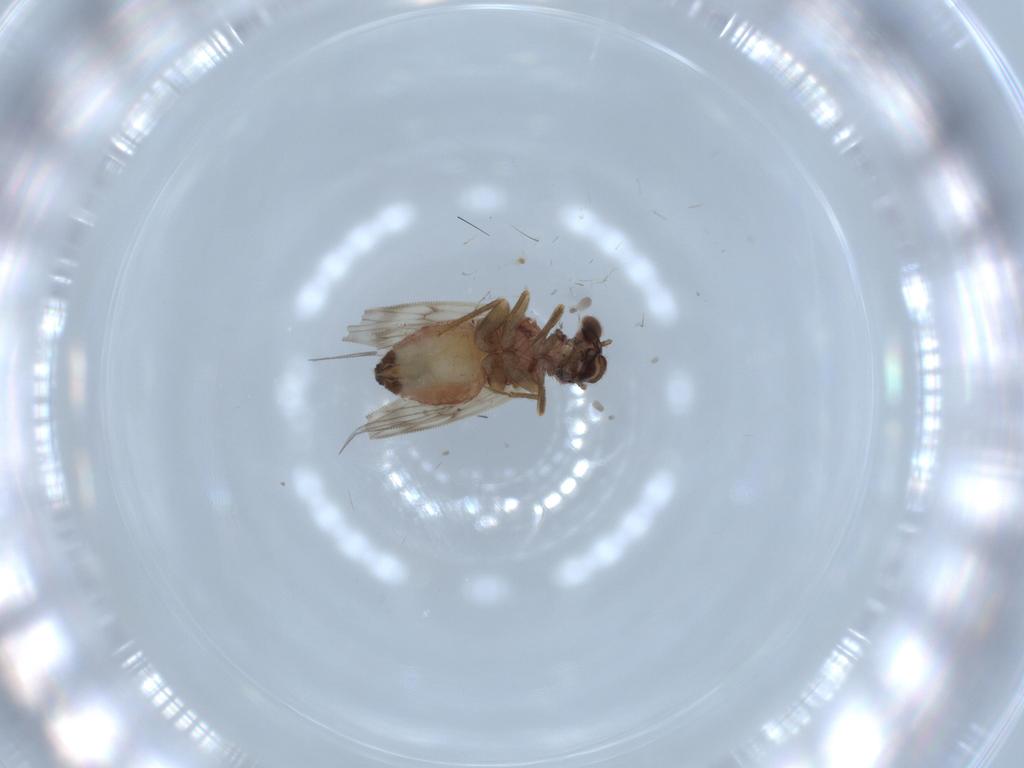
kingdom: Animalia
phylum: Arthropoda
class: Insecta
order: Psocodea
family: Lepidopsocidae
